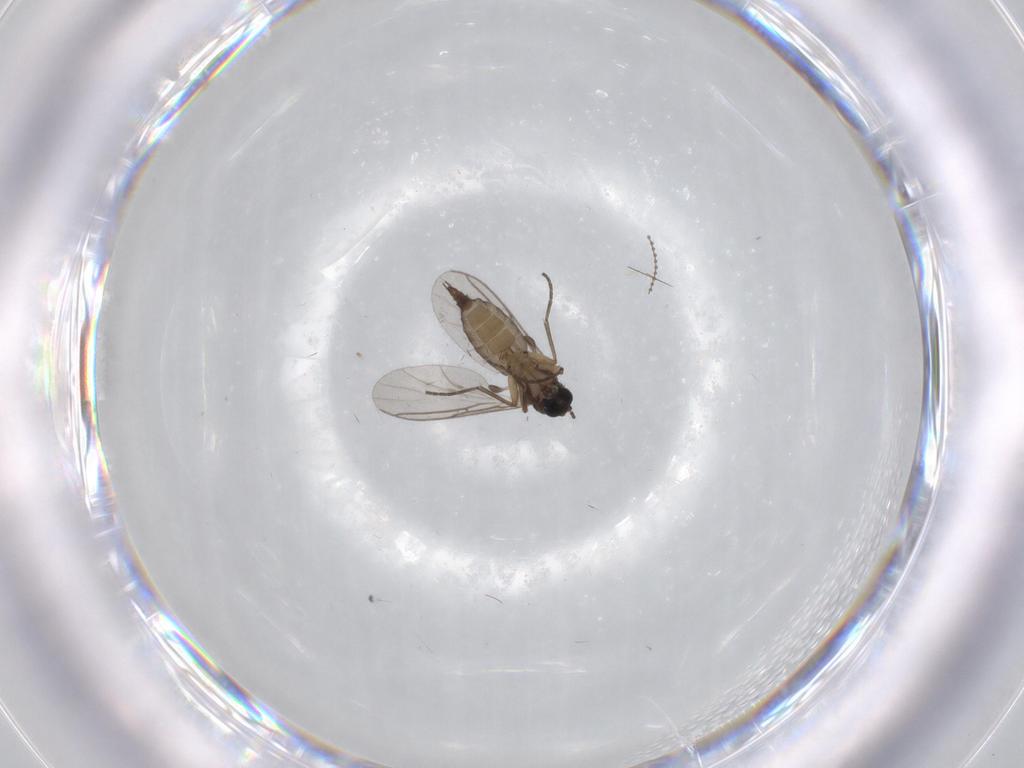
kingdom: Animalia
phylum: Arthropoda
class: Insecta
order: Diptera
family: Sciaridae
